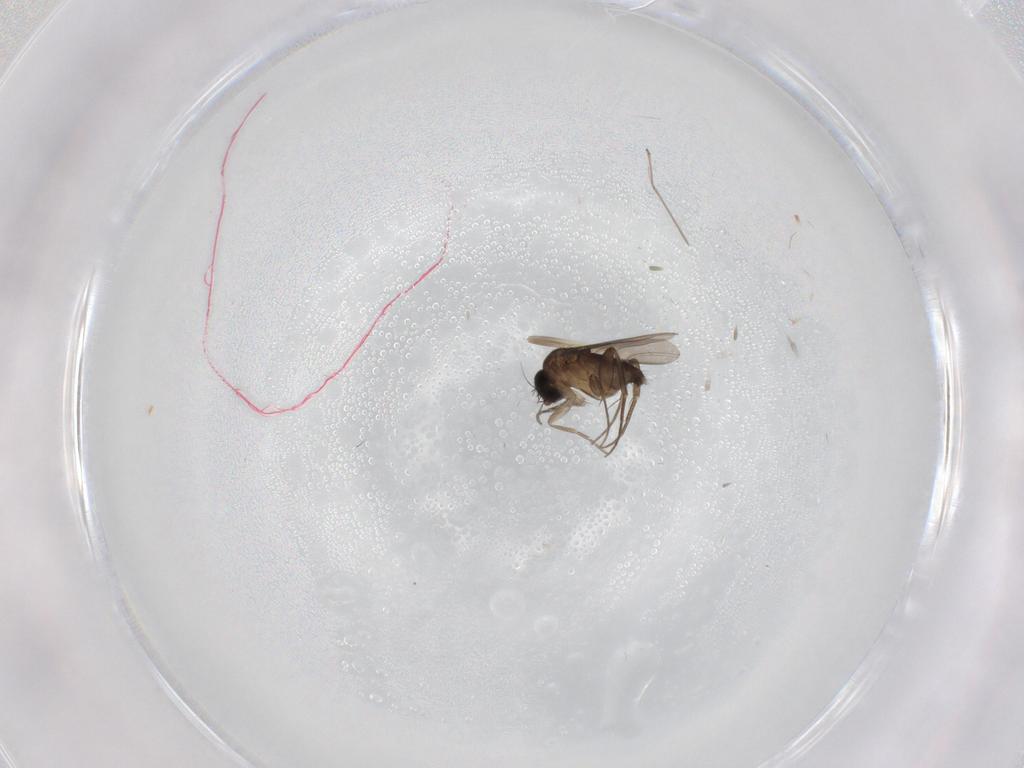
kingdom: Animalia
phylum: Arthropoda
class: Insecta
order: Diptera
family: Phoridae
